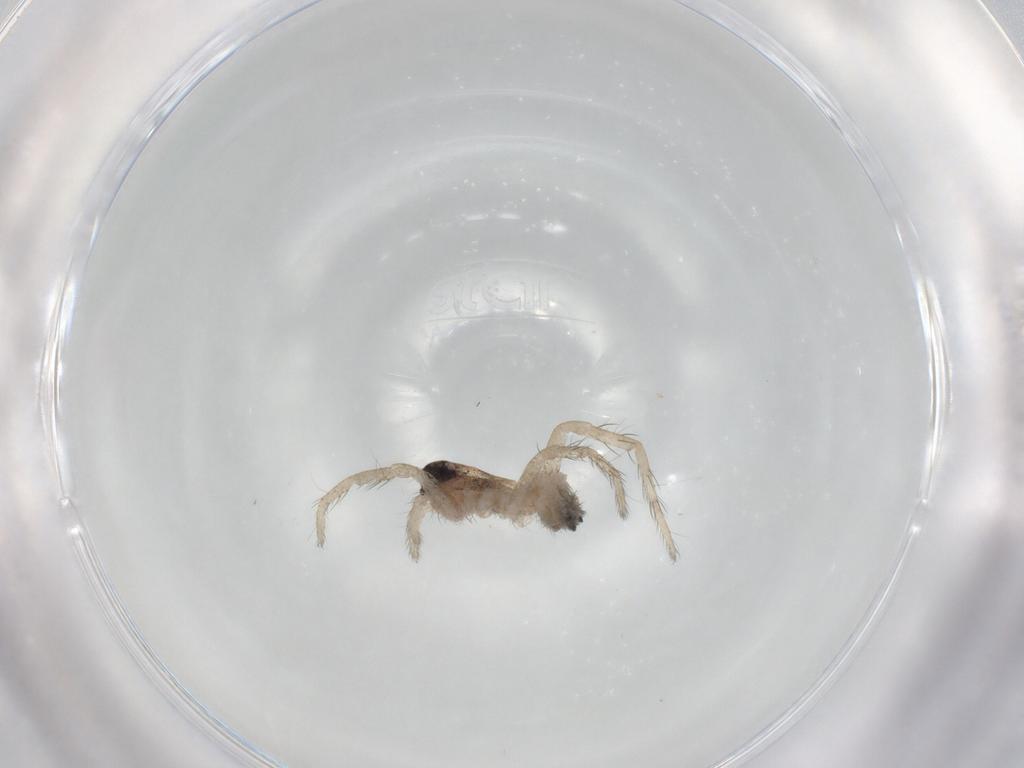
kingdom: Animalia
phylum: Arthropoda
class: Arachnida
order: Araneae
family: Lycosidae
